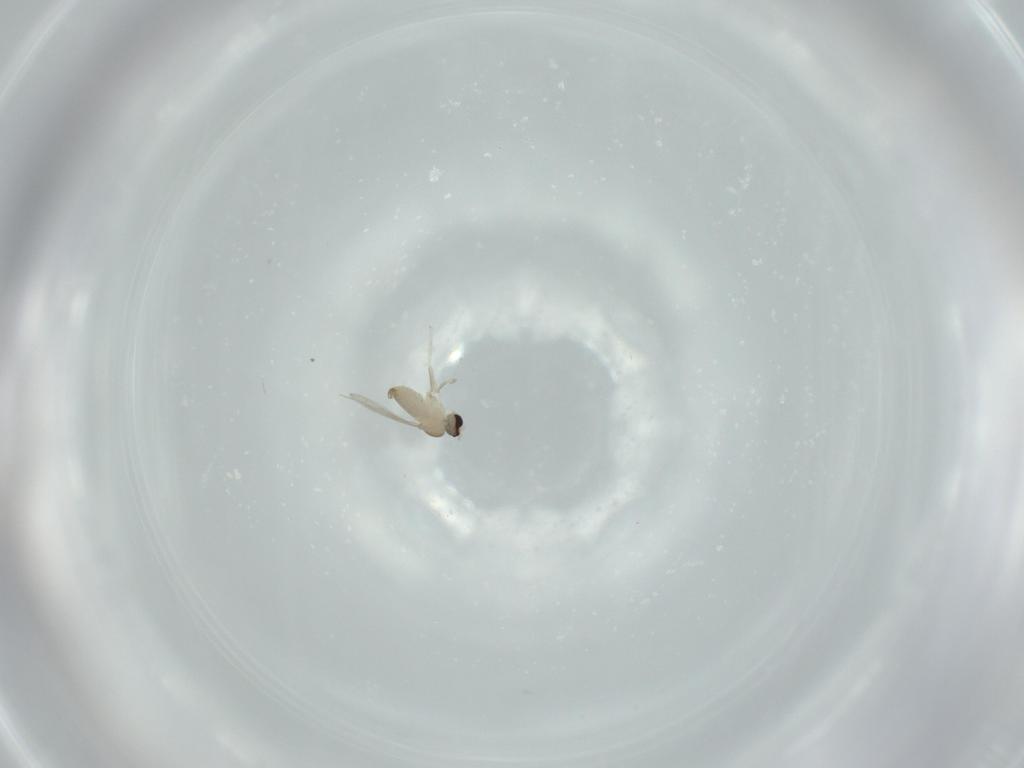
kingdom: Animalia
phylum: Arthropoda
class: Insecta
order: Diptera
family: Cecidomyiidae
